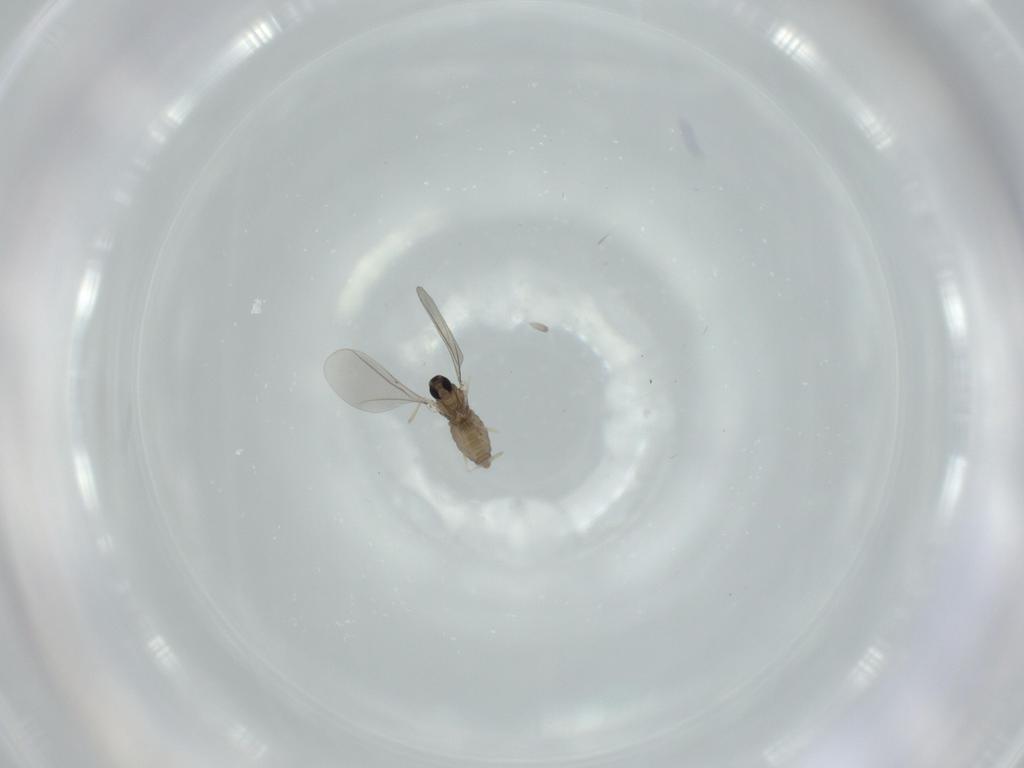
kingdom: Animalia
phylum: Arthropoda
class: Insecta
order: Diptera
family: Cecidomyiidae
